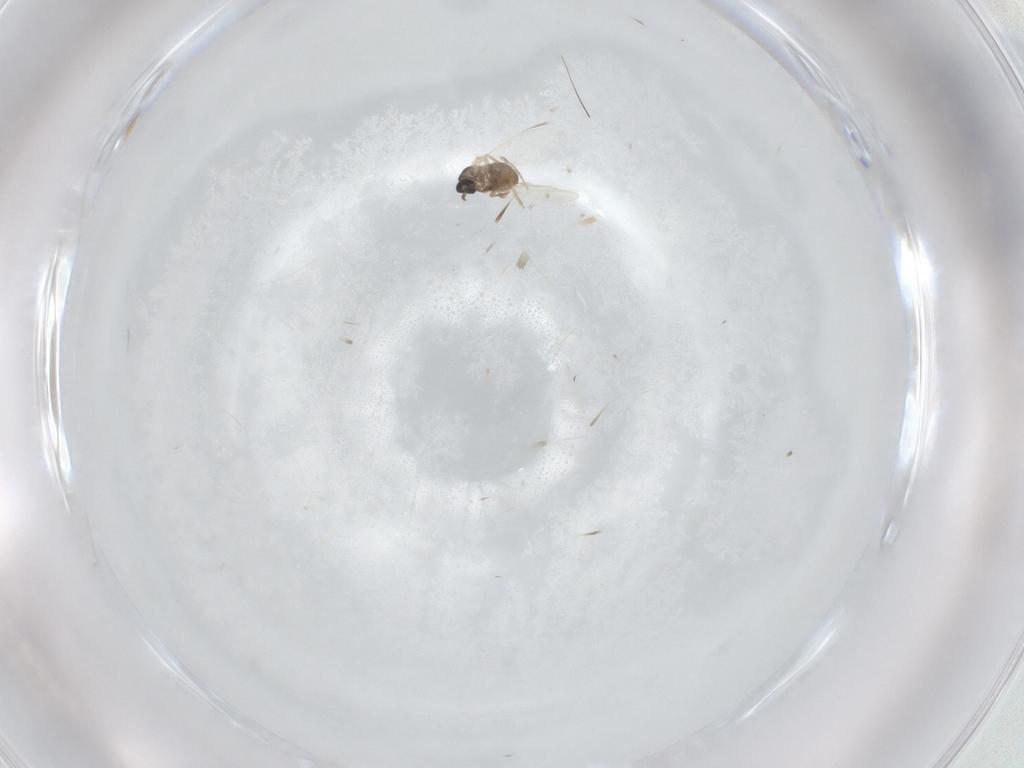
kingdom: Animalia
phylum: Arthropoda
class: Insecta
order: Diptera
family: Cecidomyiidae
